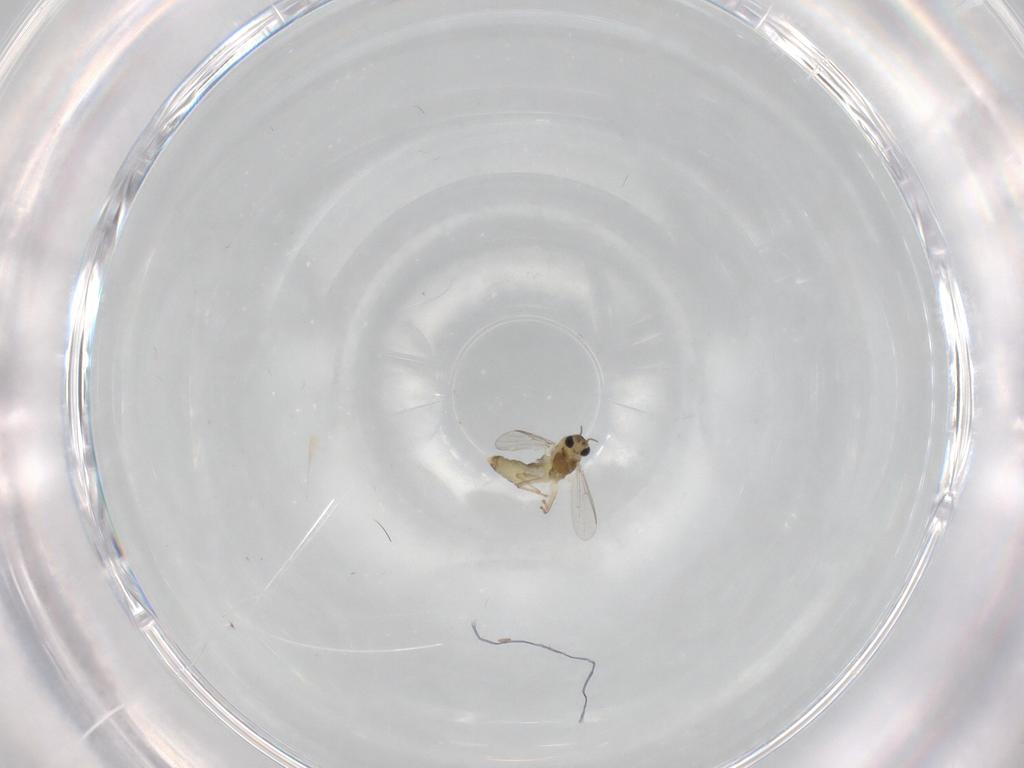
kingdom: Animalia
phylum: Arthropoda
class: Insecta
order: Diptera
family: Chironomidae
